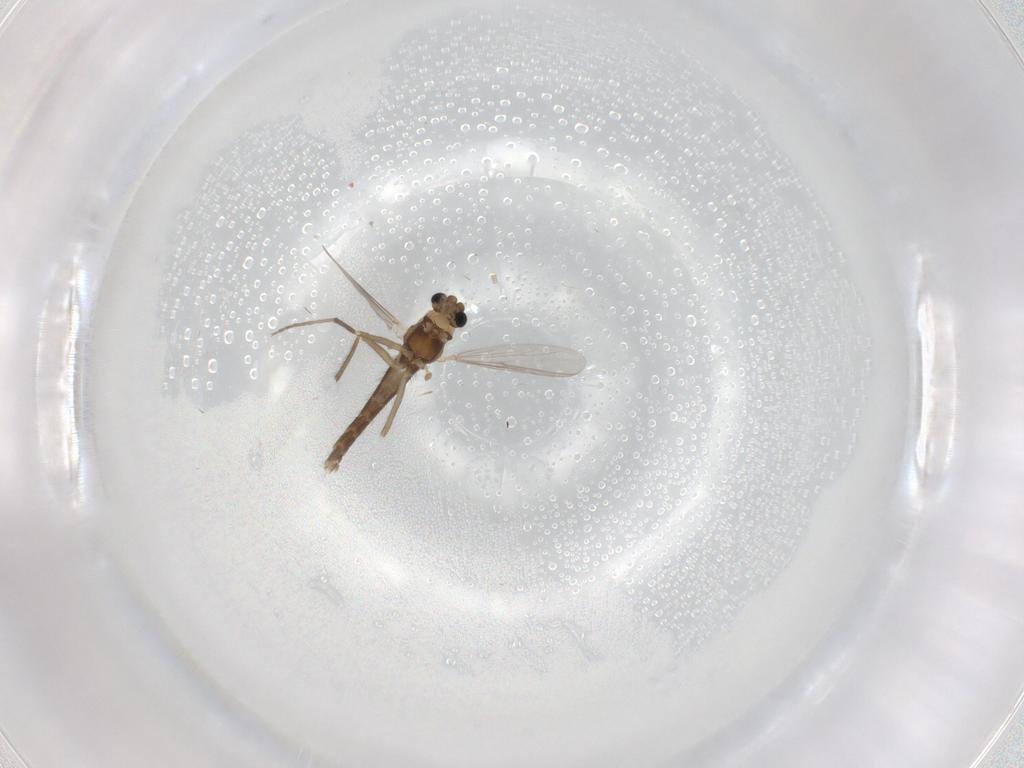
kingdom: Animalia
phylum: Arthropoda
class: Insecta
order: Diptera
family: Chironomidae
